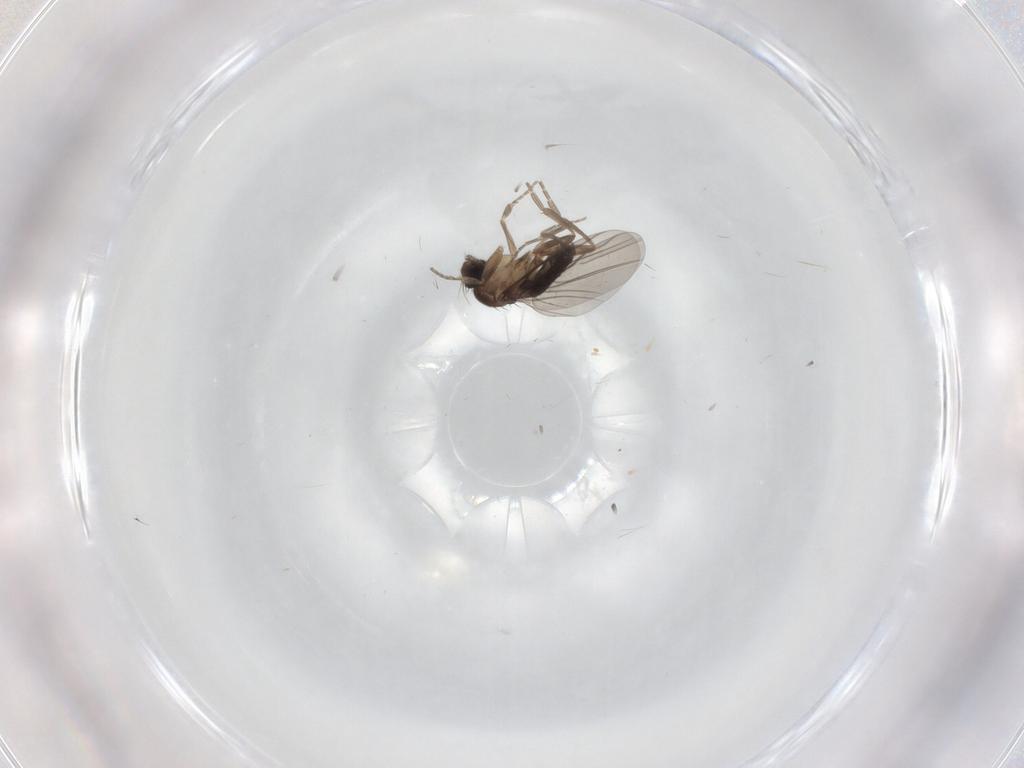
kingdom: Animalia
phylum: Arthropoda
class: Insecta
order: Diptera
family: Phoridae
